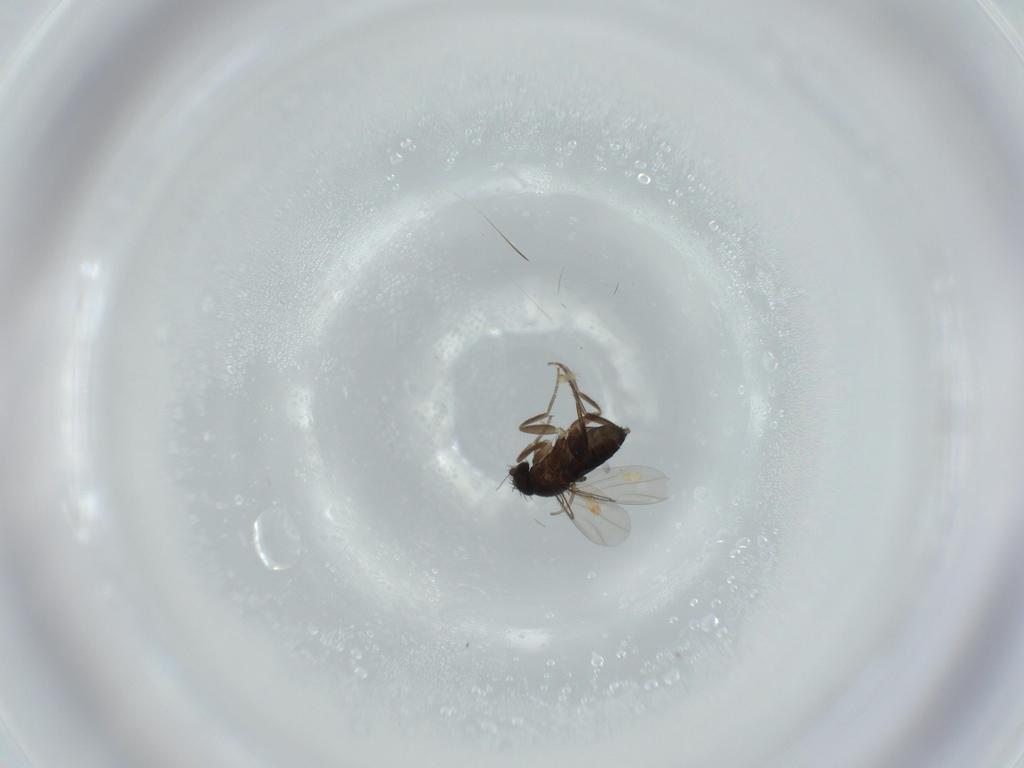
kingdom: Animalia
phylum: Arthropoda
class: Insecta
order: Diptera
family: Phoridae
